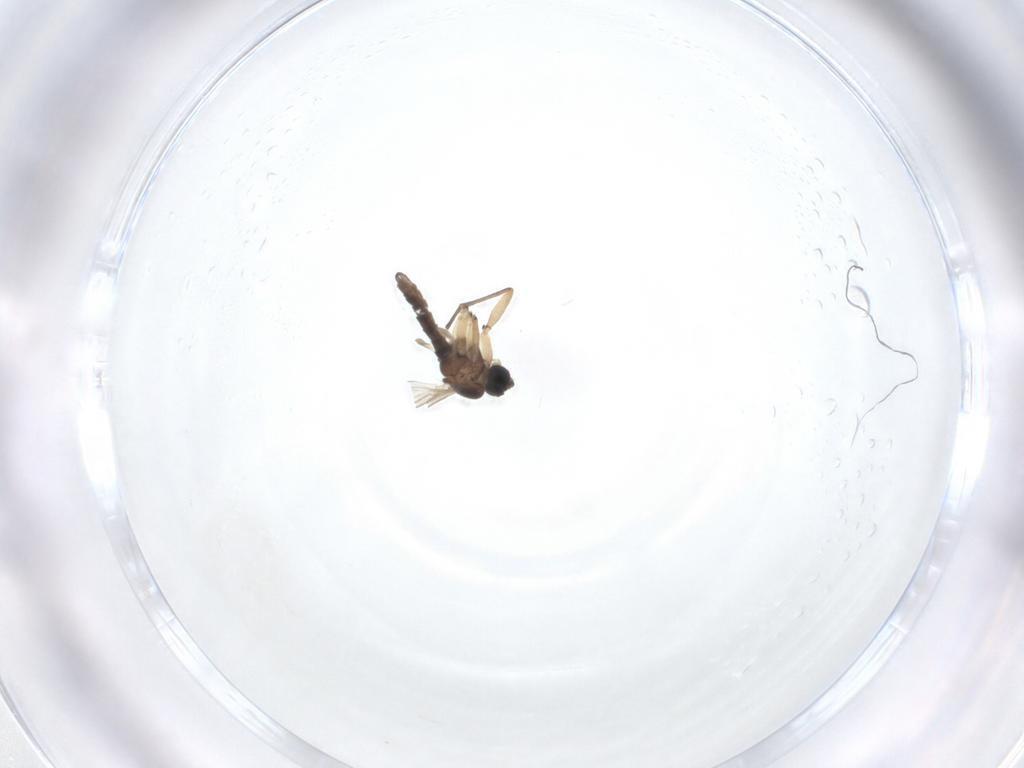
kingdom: Animalia
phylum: Arthropoda
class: Insecta
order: Diptera
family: Sciaridae
